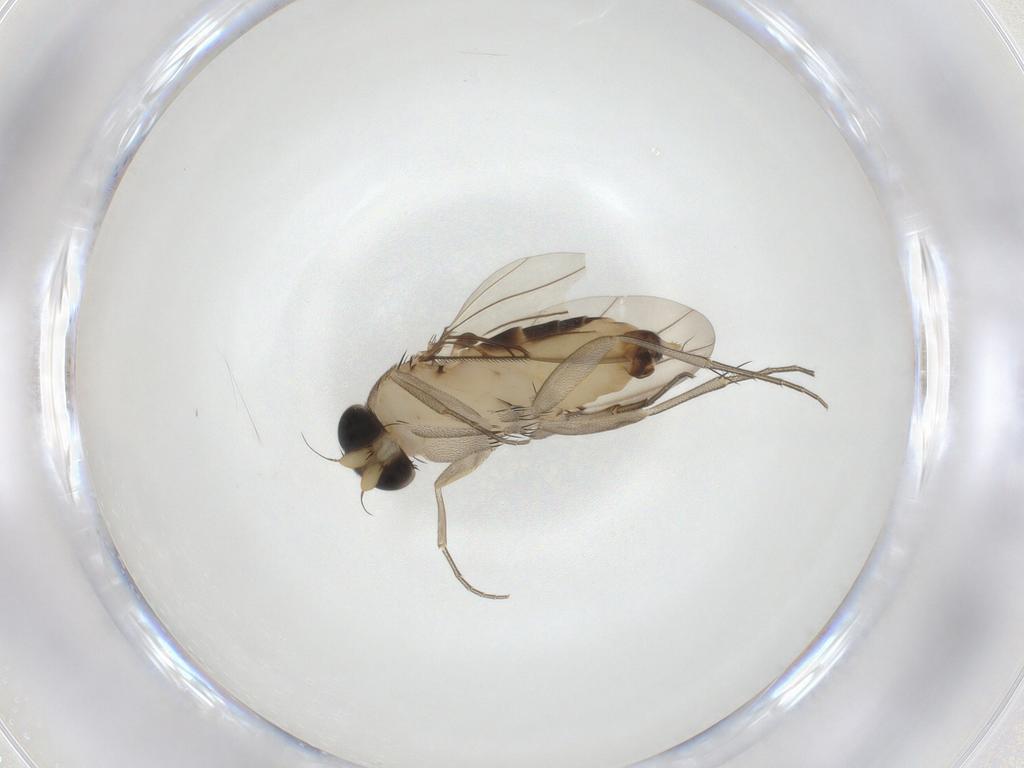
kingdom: Animalia
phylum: Arthropoda
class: Insecta
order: Diptera
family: Phoridae
